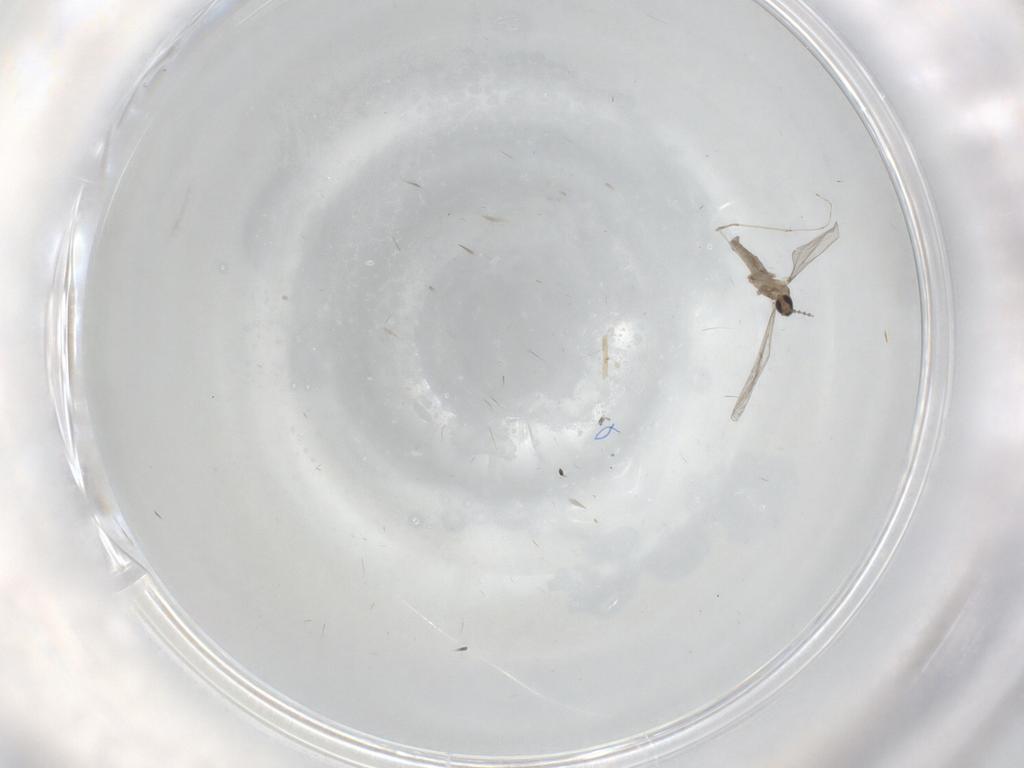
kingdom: Animalia
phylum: Arthropoda
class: Insecta
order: Diptera
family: Cecidomyiidae
